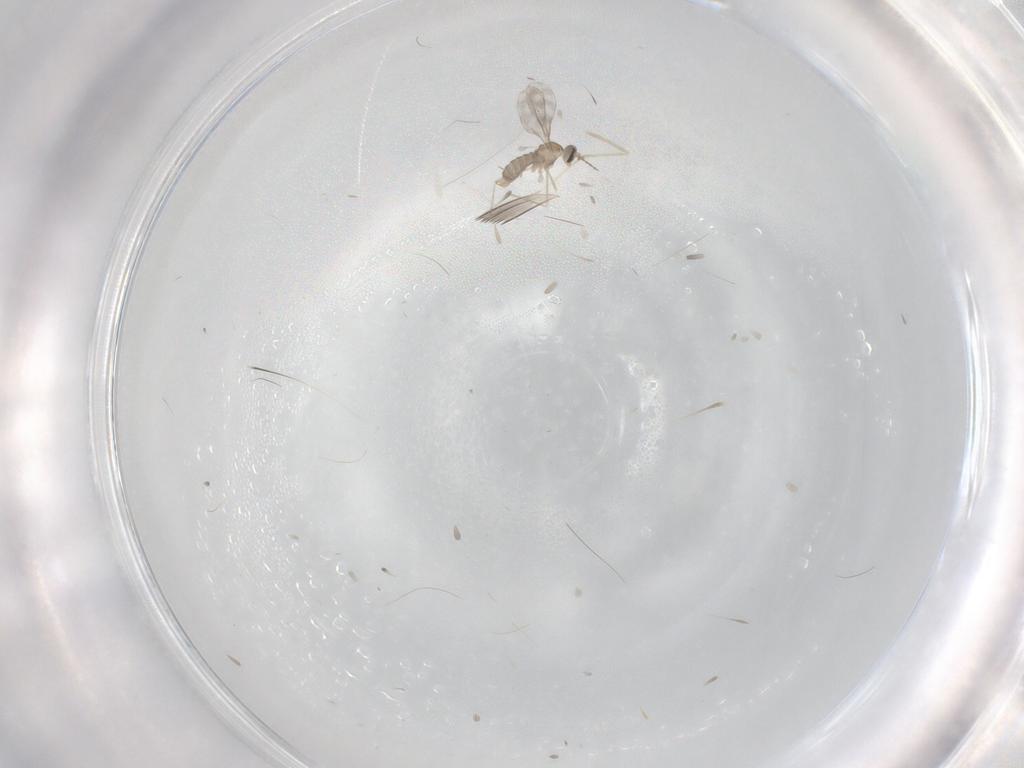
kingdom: Animalia
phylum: Arthropoda
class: Insecta
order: Diptera
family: Cecidomyiidae
